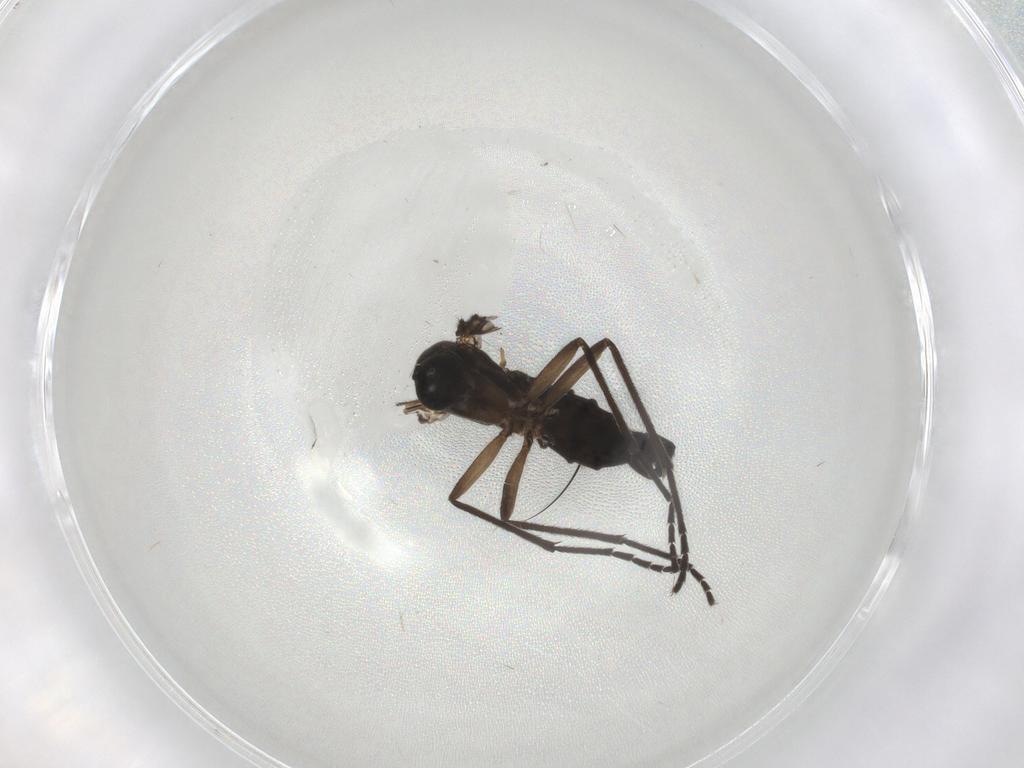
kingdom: Animalia
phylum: Arthropoda
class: Insecta
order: Diptera
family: Sciaridae
